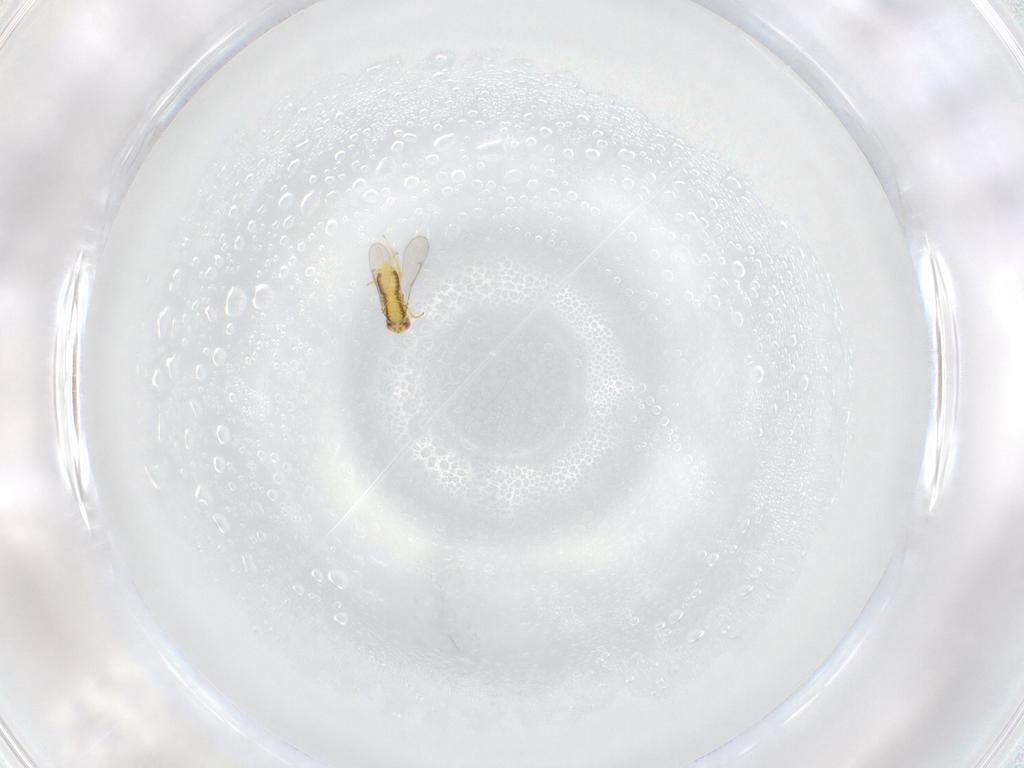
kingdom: Animalia
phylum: Arthropoda
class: Insecta
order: Hymenoptera
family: Aphelinidae
